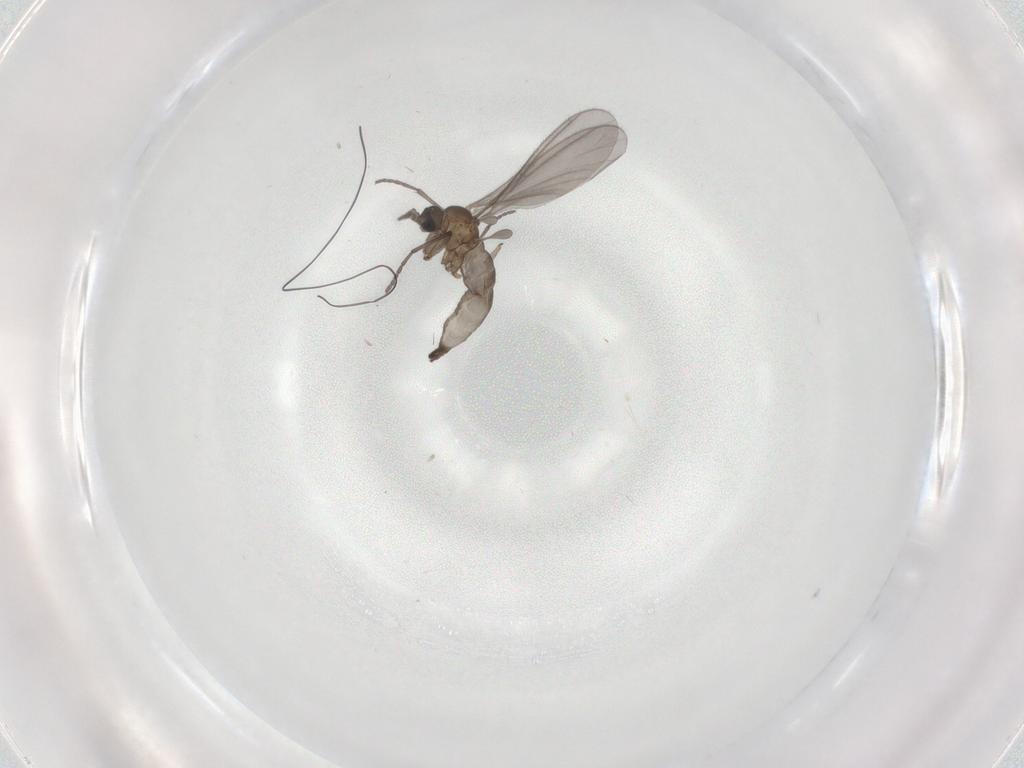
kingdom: Animalia
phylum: Arthropoda
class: Insecta
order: Diptera
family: Sciaridae
